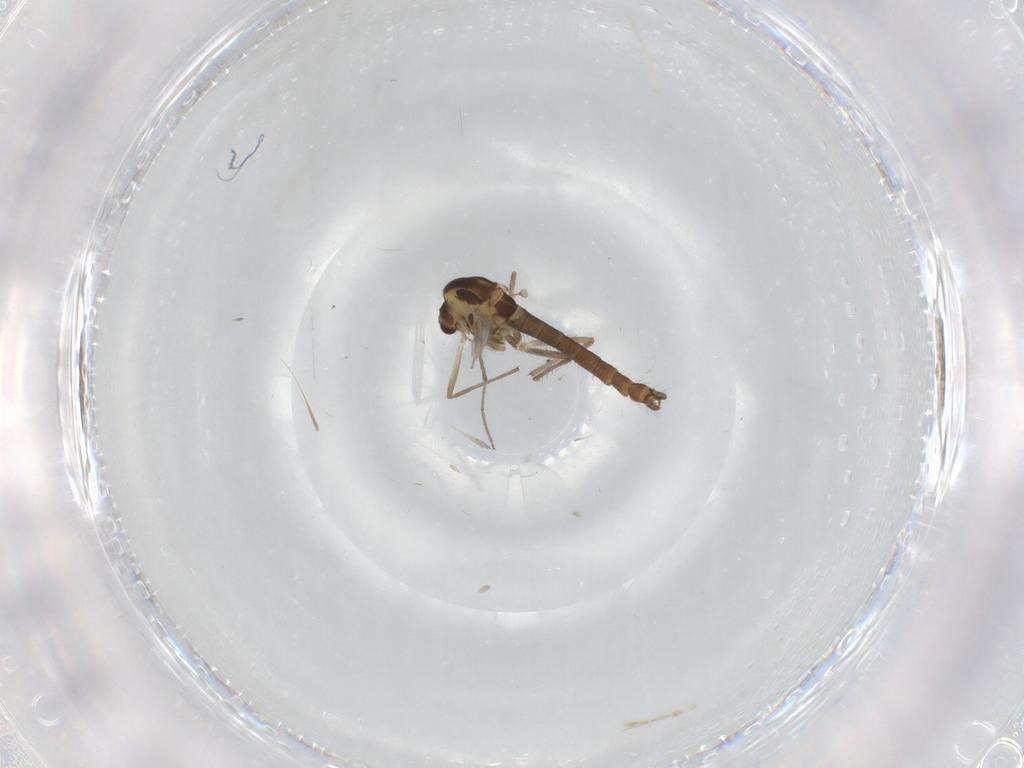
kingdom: Animalia
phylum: Arthropoda
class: Insecta
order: Diptera
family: Chironomidae
